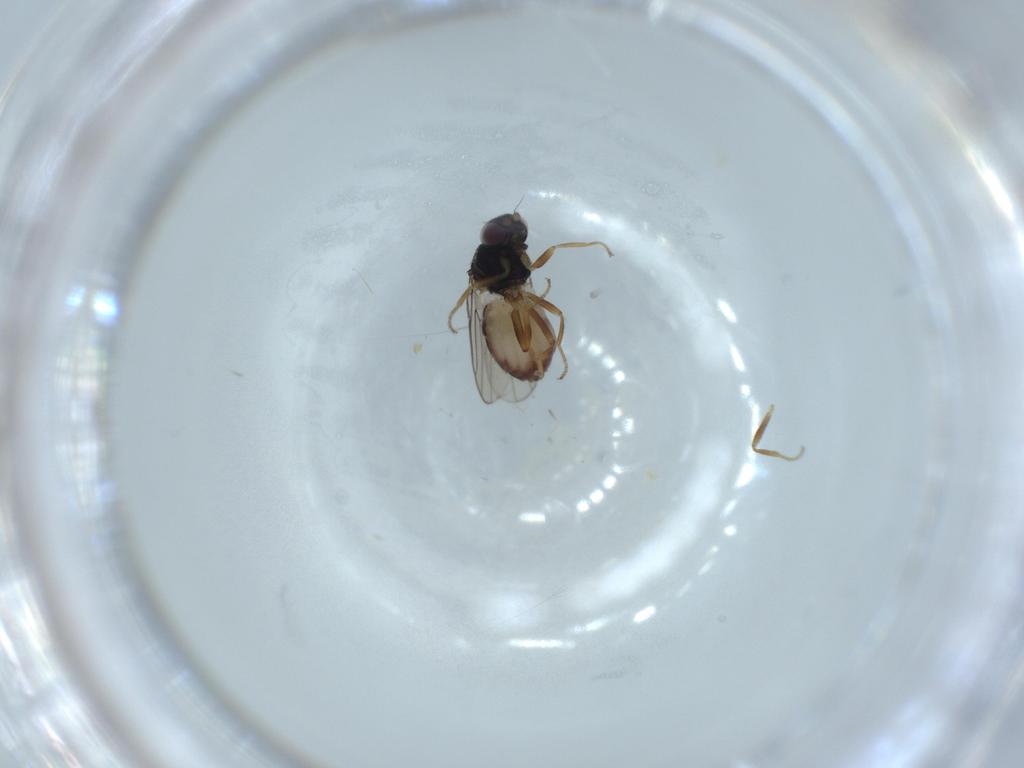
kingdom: Animalia
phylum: Arthropoda
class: Insecta
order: Diptera
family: Chloropidae
